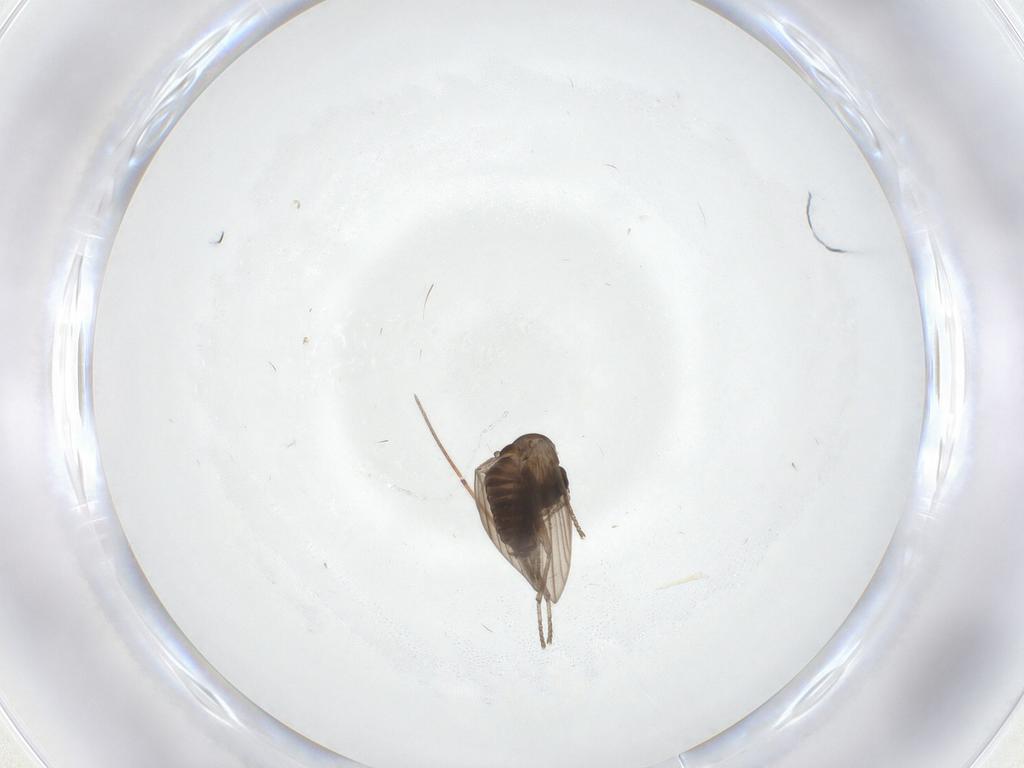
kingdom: Animalia
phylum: Arthropoda
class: Insecta
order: Diptera
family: Psychodidae
